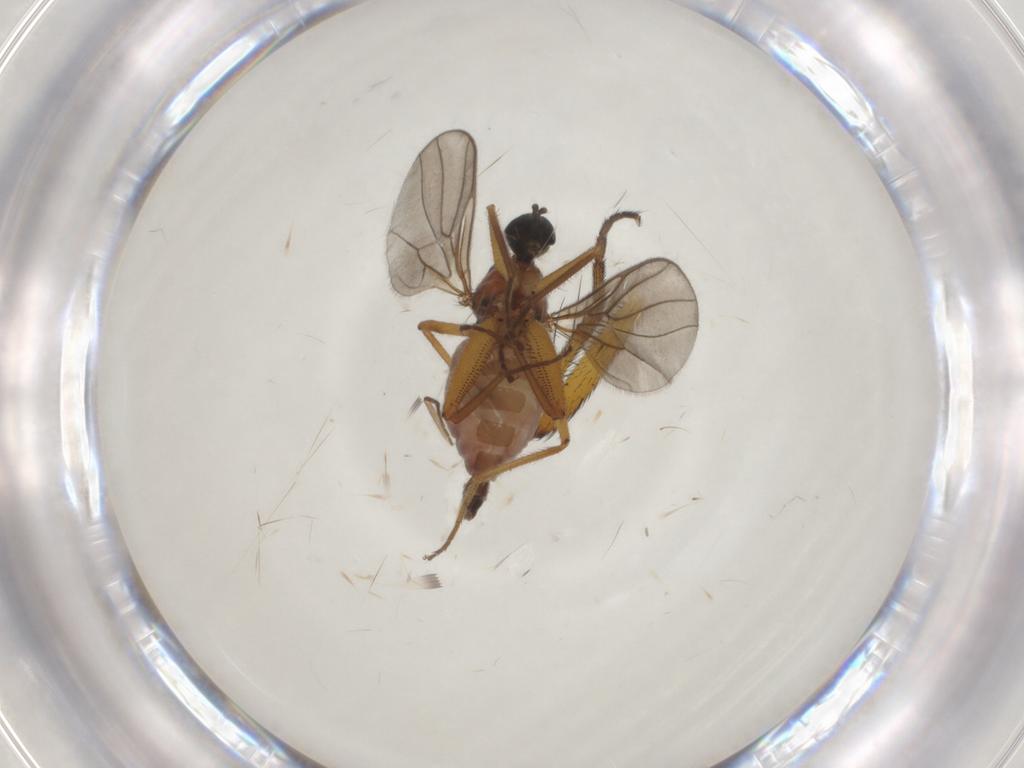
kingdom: Animalia
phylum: Arthropoda
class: Insecta
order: Diptera
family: Hybotidae
